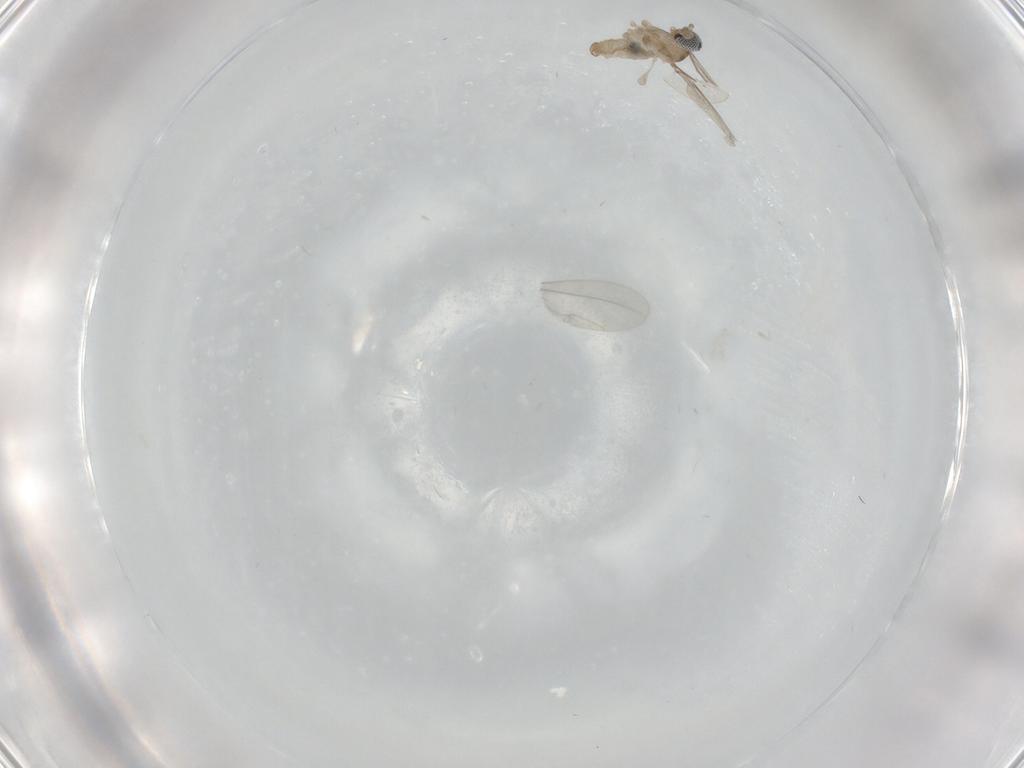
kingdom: Animalia
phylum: Arthropoda
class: Insecta
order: Diptera
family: Cecidomyiidae
